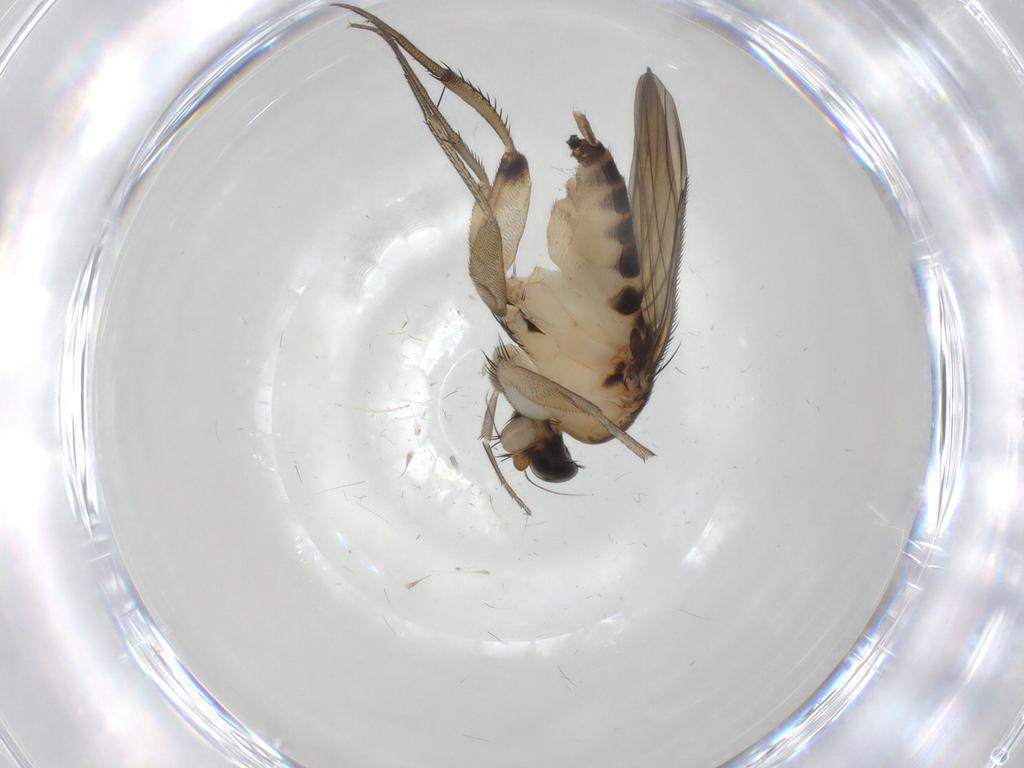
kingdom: Animalia
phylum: Arthropoda
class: Insecta
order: Diptera
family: Phoridae
